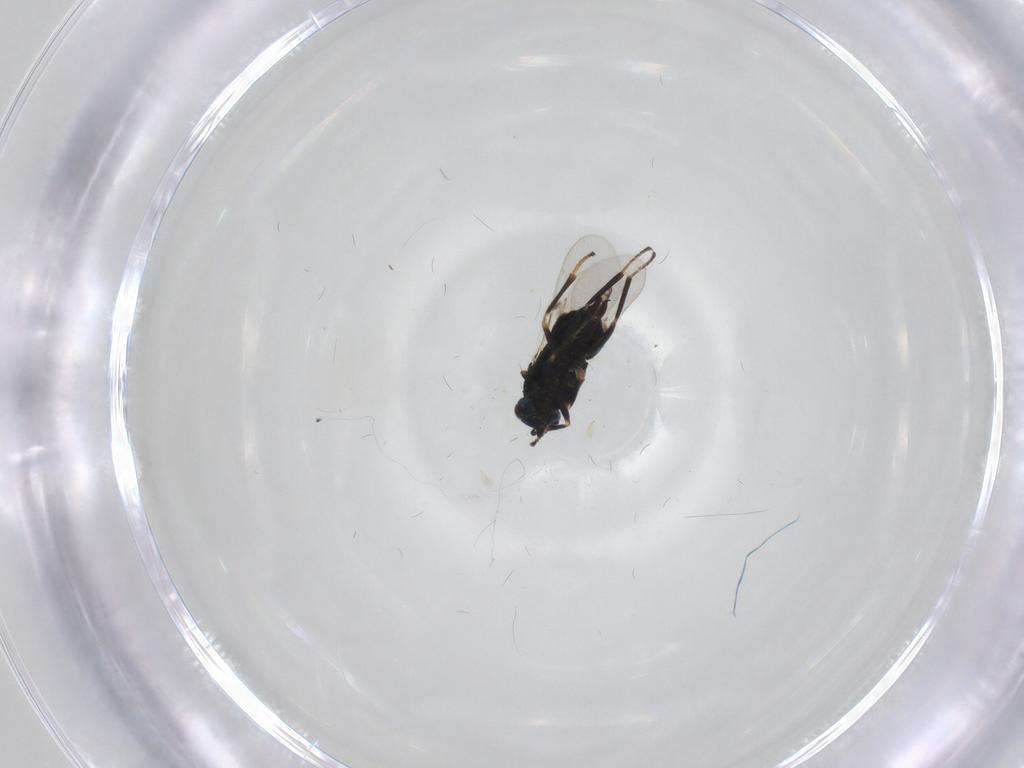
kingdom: Animalia
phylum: Arthropoda
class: Insecta
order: Hymenoptera
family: Encyrtidae
